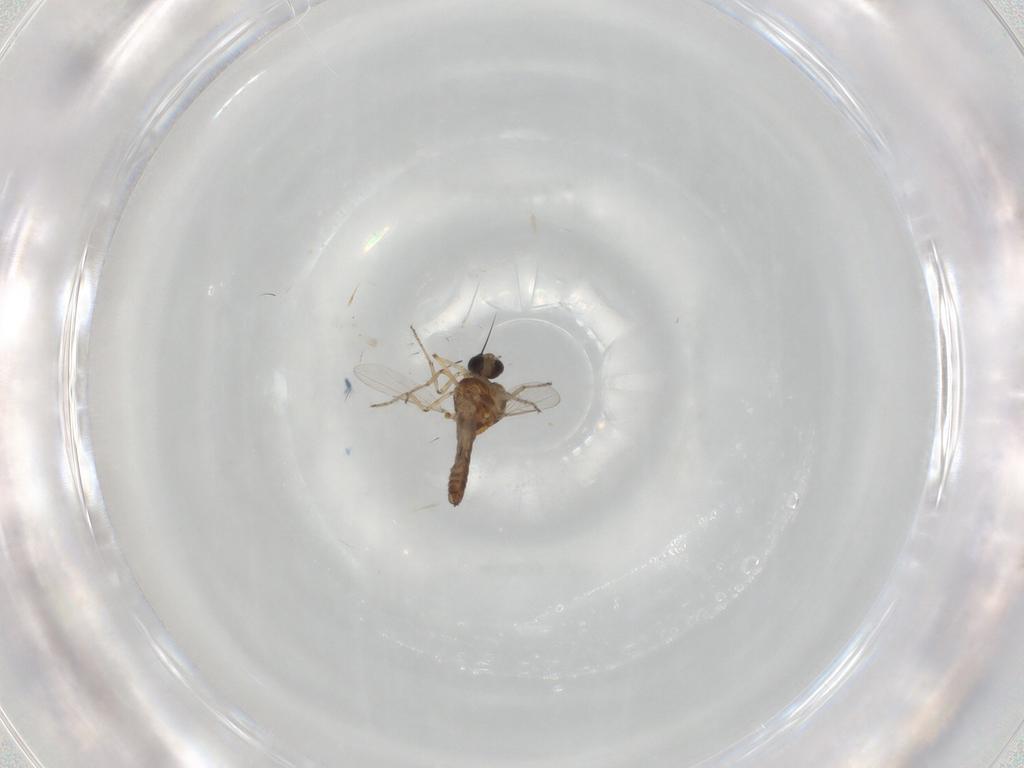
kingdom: Animalia
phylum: Arthropoda
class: Insecta
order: Diptera
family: Ceratopogonidae
